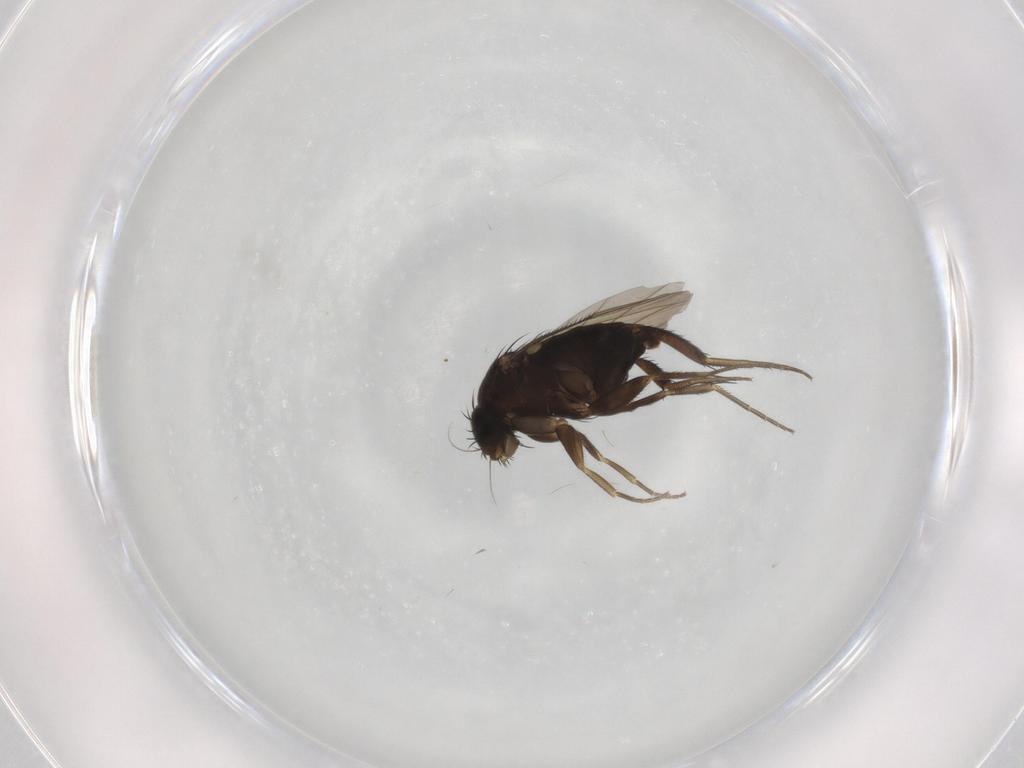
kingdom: Animalia
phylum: Arthropoda
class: Insecta
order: Diptera
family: Phoridae
